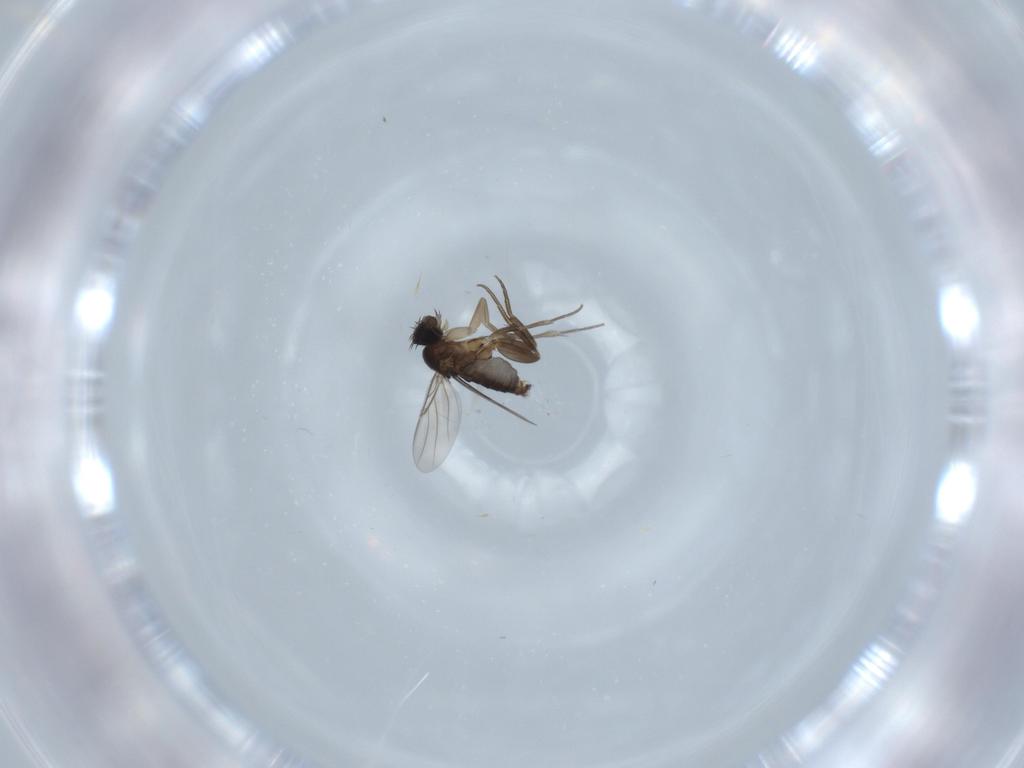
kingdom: Animalia
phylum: Arthropoda
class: Insecta
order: Diptera
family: Phoridae
